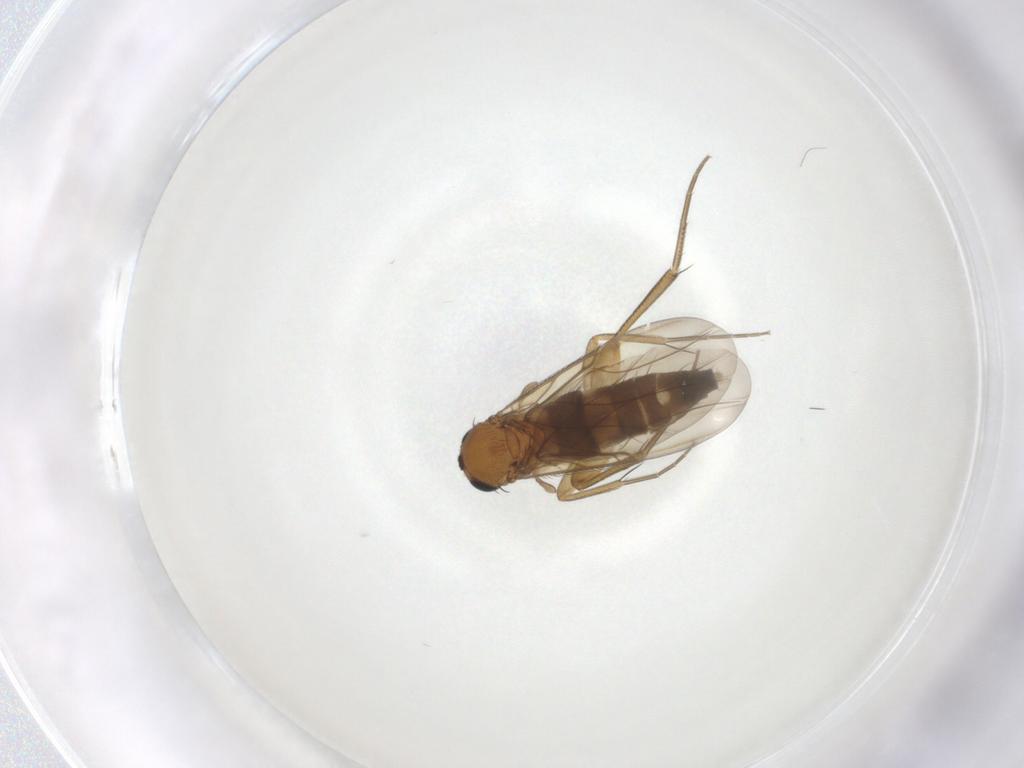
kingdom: Animalia
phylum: Arthropoda
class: Insecta
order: Diptera
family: Phoridae
